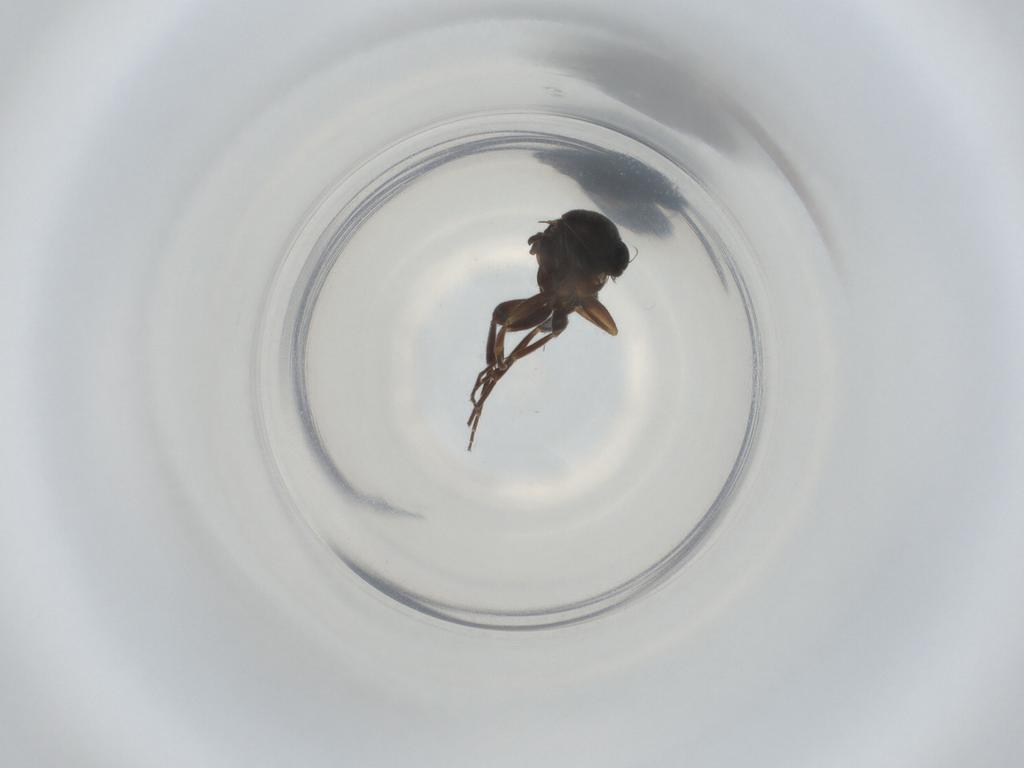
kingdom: Animalia
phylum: Arthropoda
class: Insecta
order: Diptera
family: Phoridae
